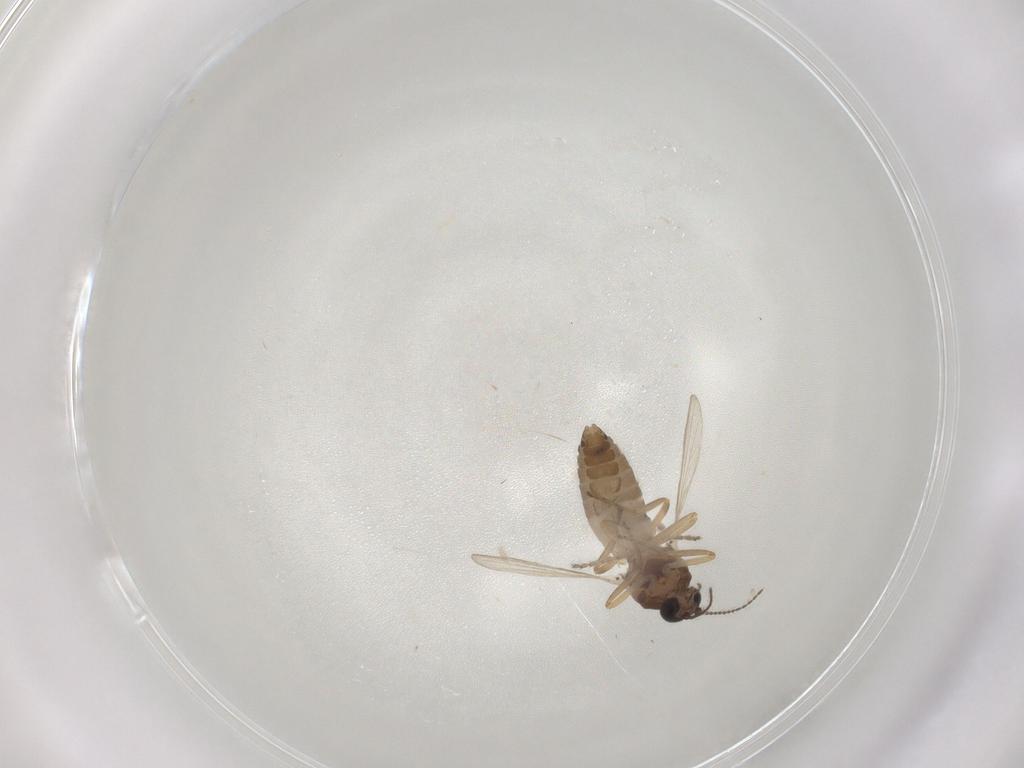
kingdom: Animalia
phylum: Arthropoda
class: Insecta
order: Diptera
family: Ceratopogonidae
